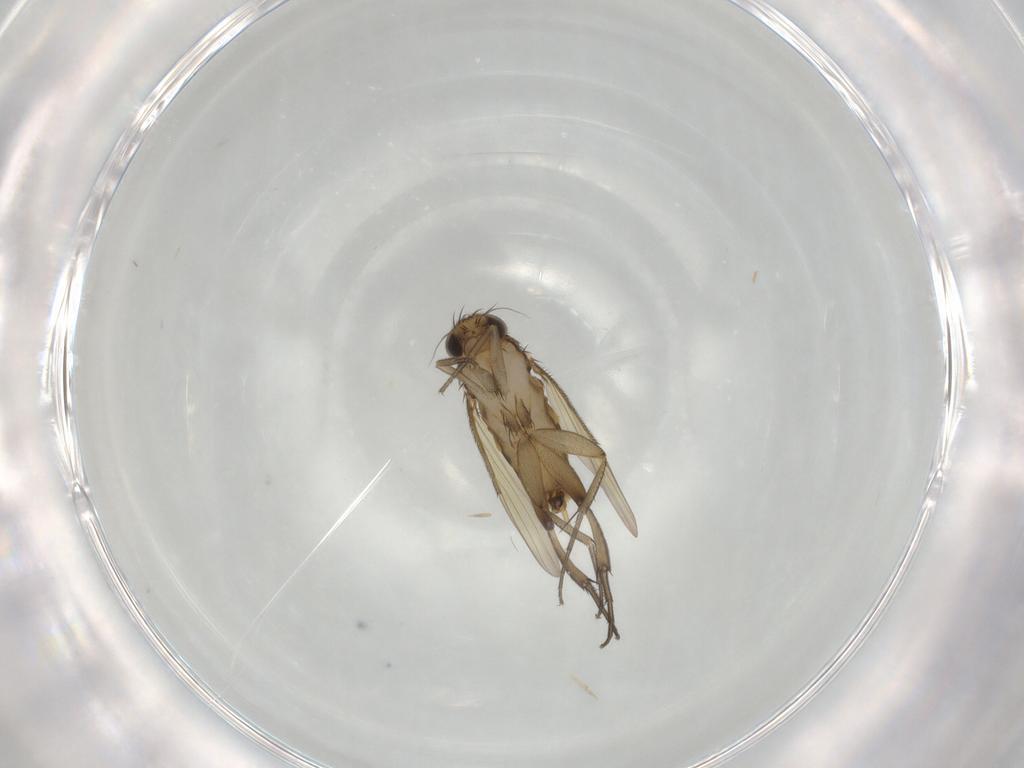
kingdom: Animalia
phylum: Arthropoda
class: Insecta
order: Diptera
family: Phoridae
